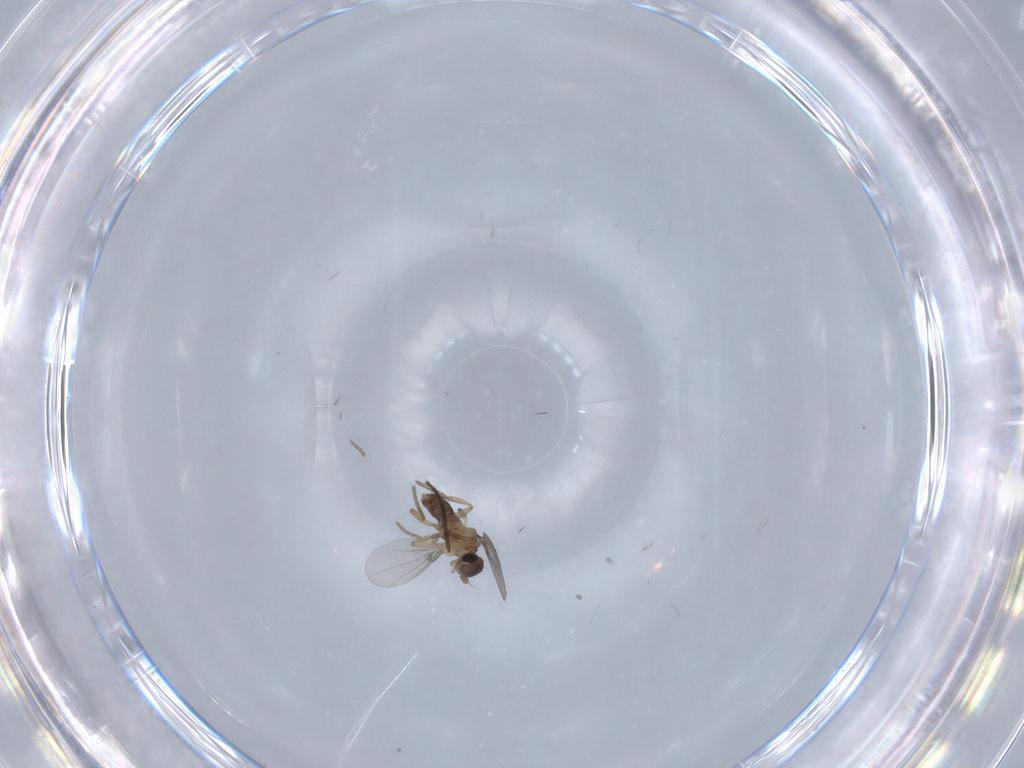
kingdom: Animalia
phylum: Arthropoda
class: Insecta
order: Diptera
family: Phoridae
